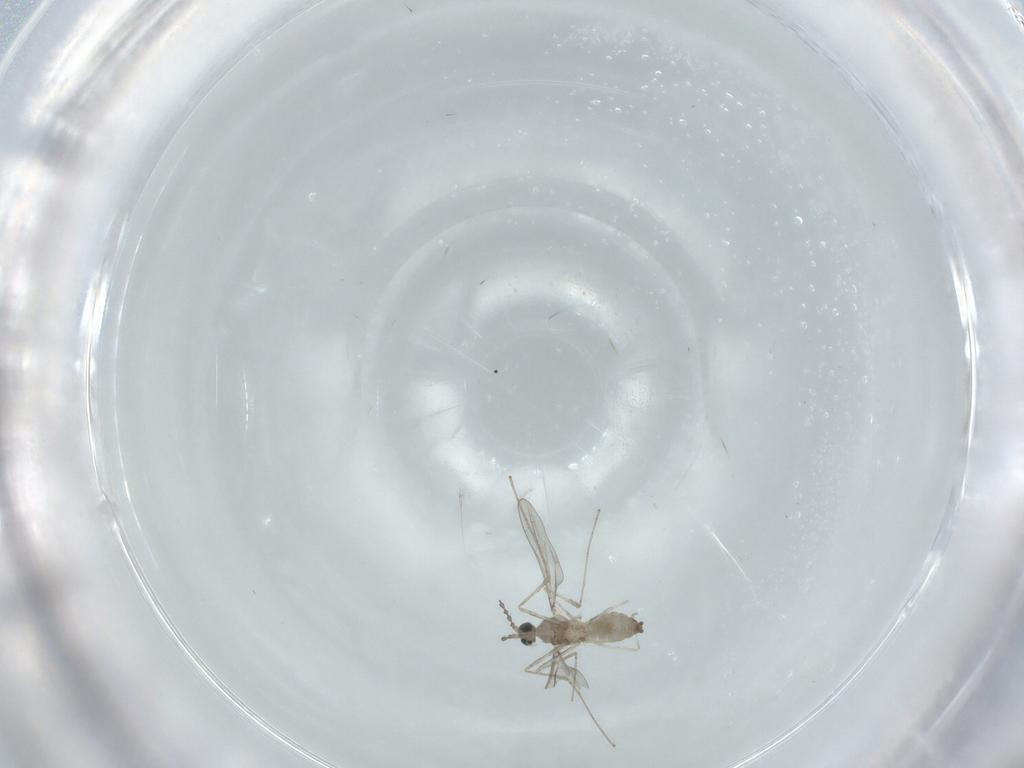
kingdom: Animalia
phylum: Arthropoda
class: Insecta
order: Diptera
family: Cecidomyiidae
